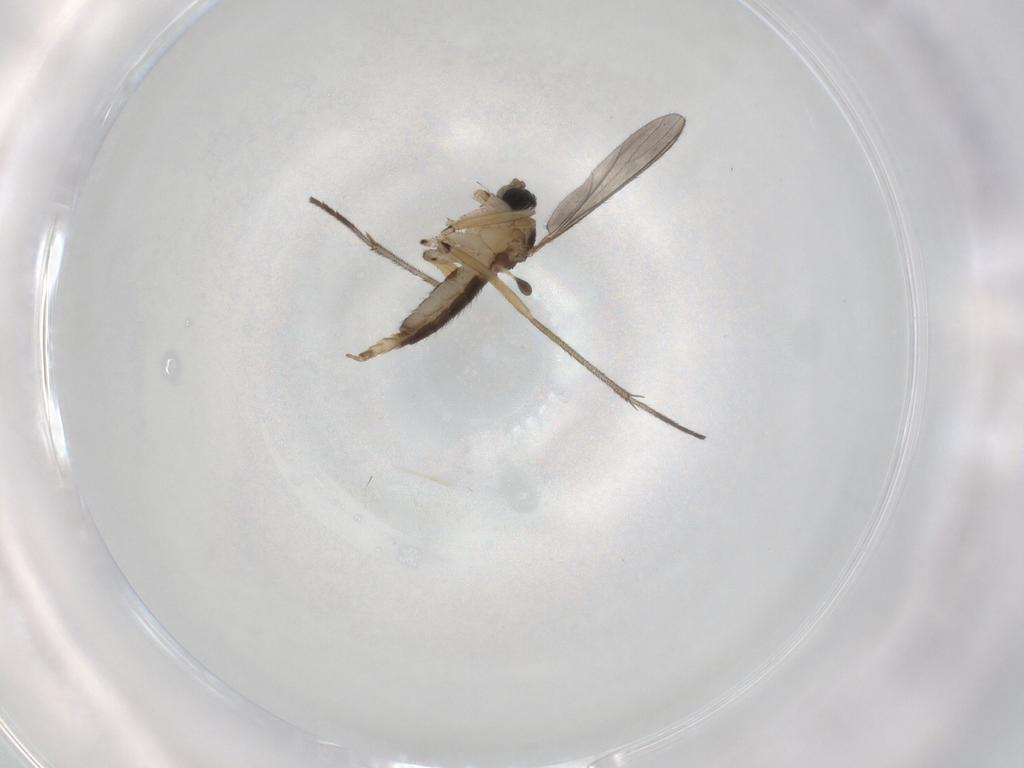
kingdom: Animalia
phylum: Arthropoda
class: Insecta
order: Diptera
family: Sciaridae
